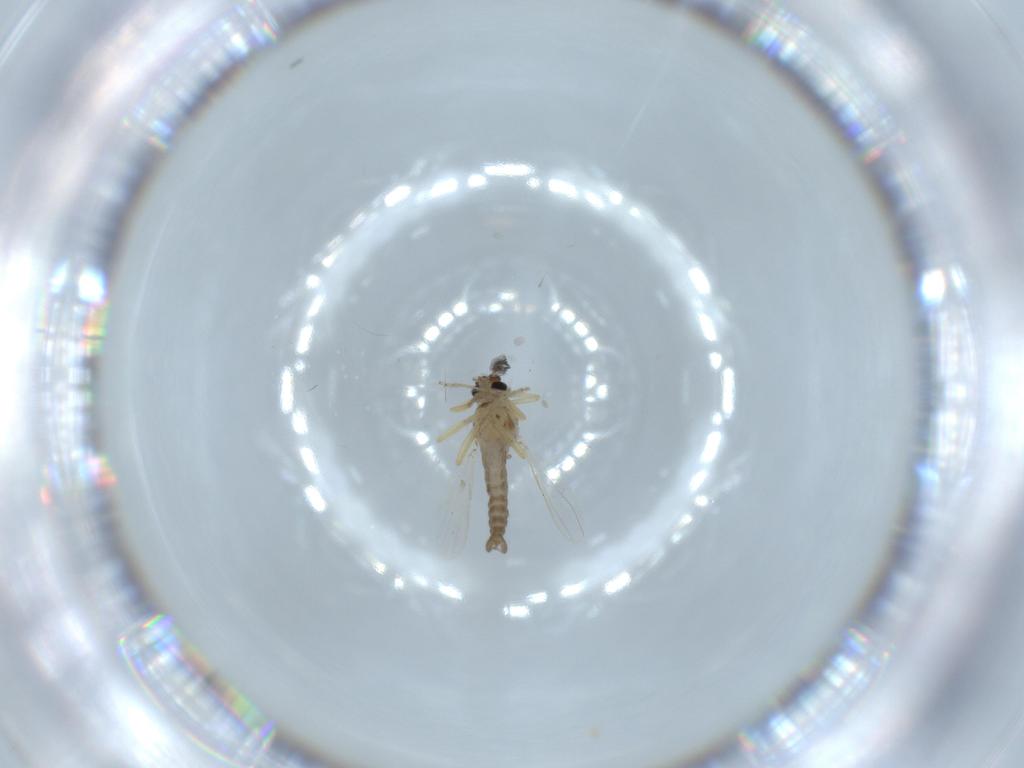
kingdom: Animalia
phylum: Arthropoda
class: Insecta
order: Diptera
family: Ceratopogonidae
